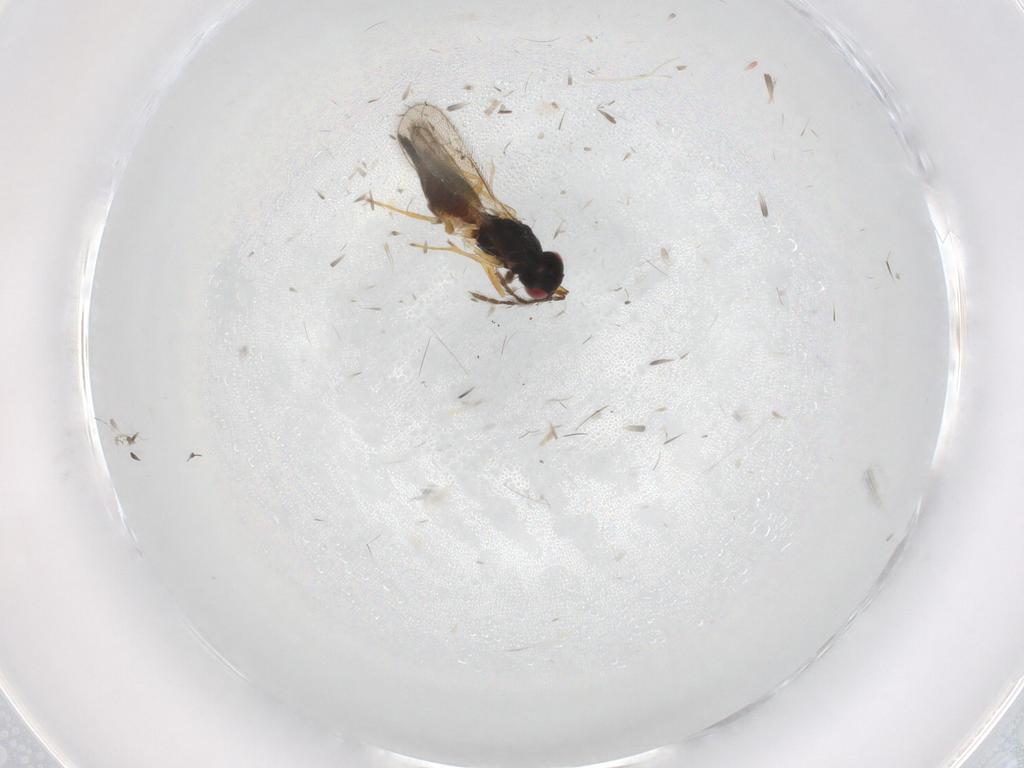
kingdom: Animalia
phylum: Arthropoda
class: Insecta
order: Hymenoptera
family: Eulophidae
